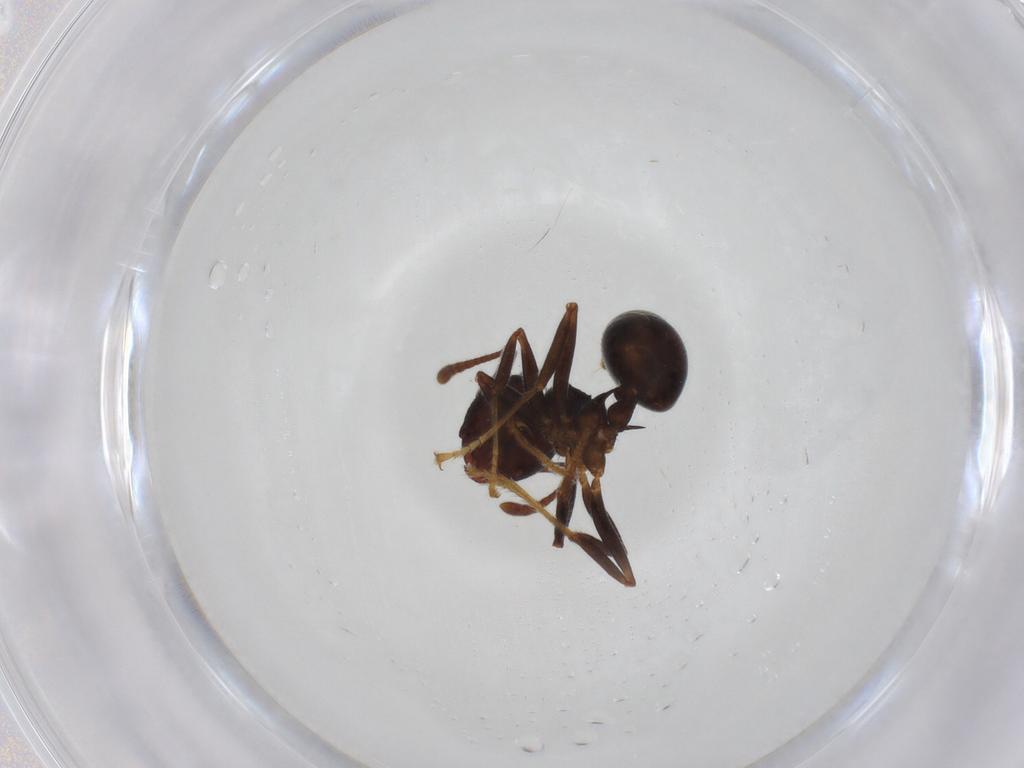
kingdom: Animalia
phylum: Arthropoda
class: Insecta
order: Hymenoptera
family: Formicidae
